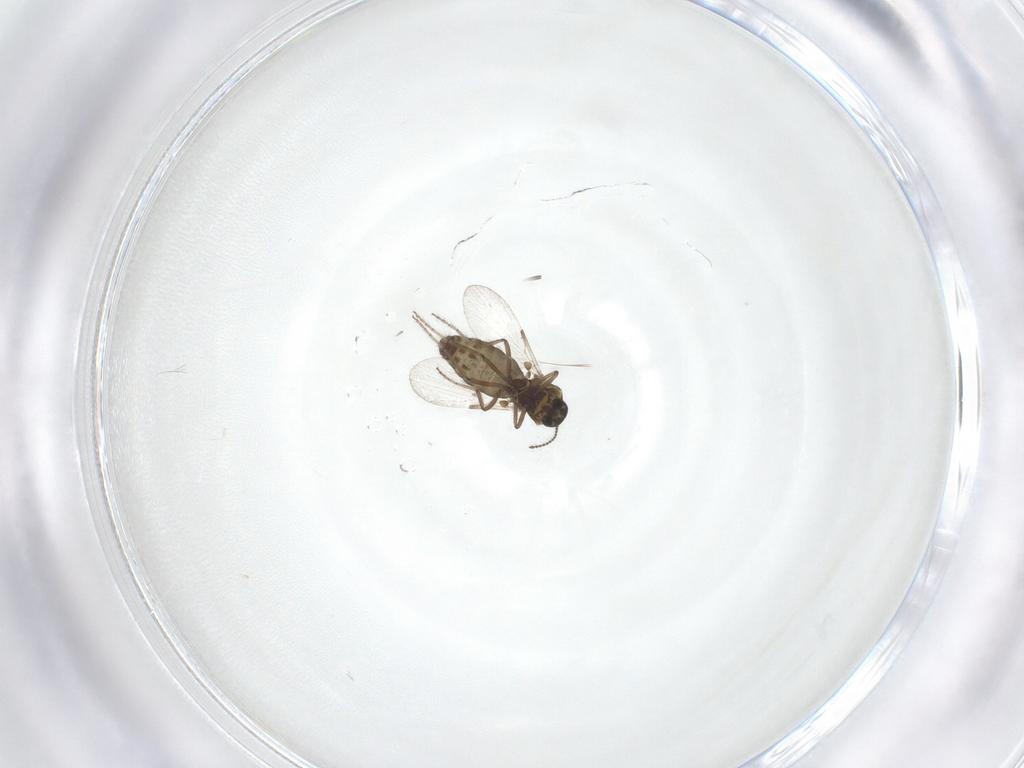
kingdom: Animalia
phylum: Arthropoda
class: Insecta
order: Diptera
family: Ceratopogonidae
